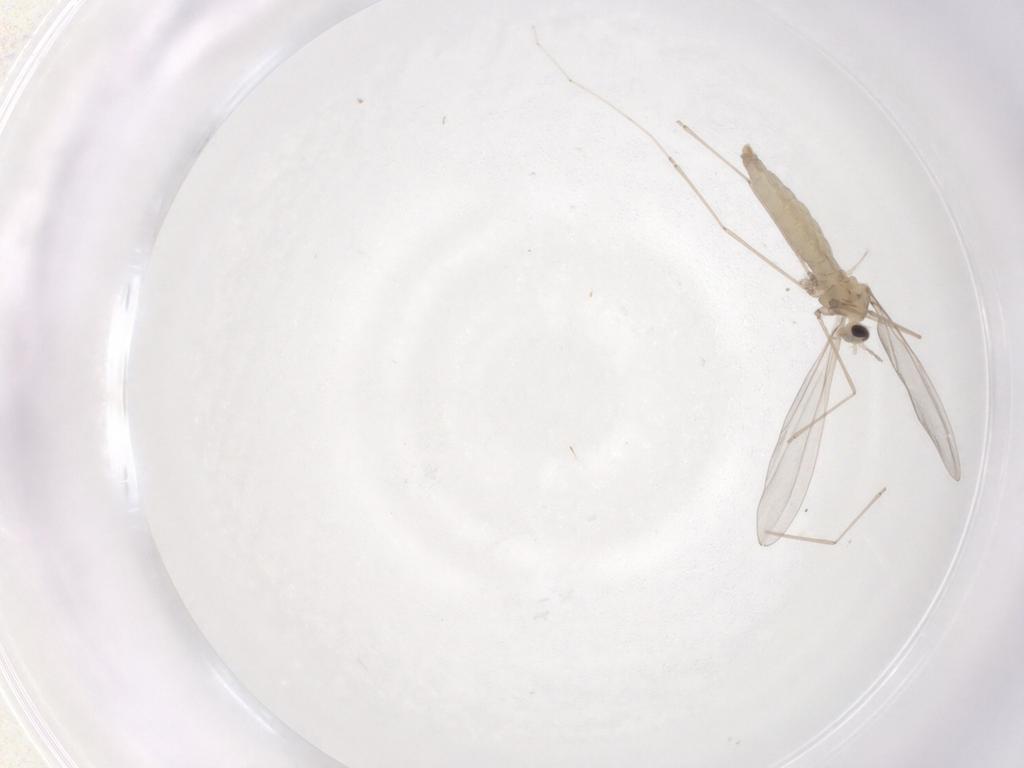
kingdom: Animalia
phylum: Arthropoda
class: Insecta
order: Diptera
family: Cecidomyiidae
